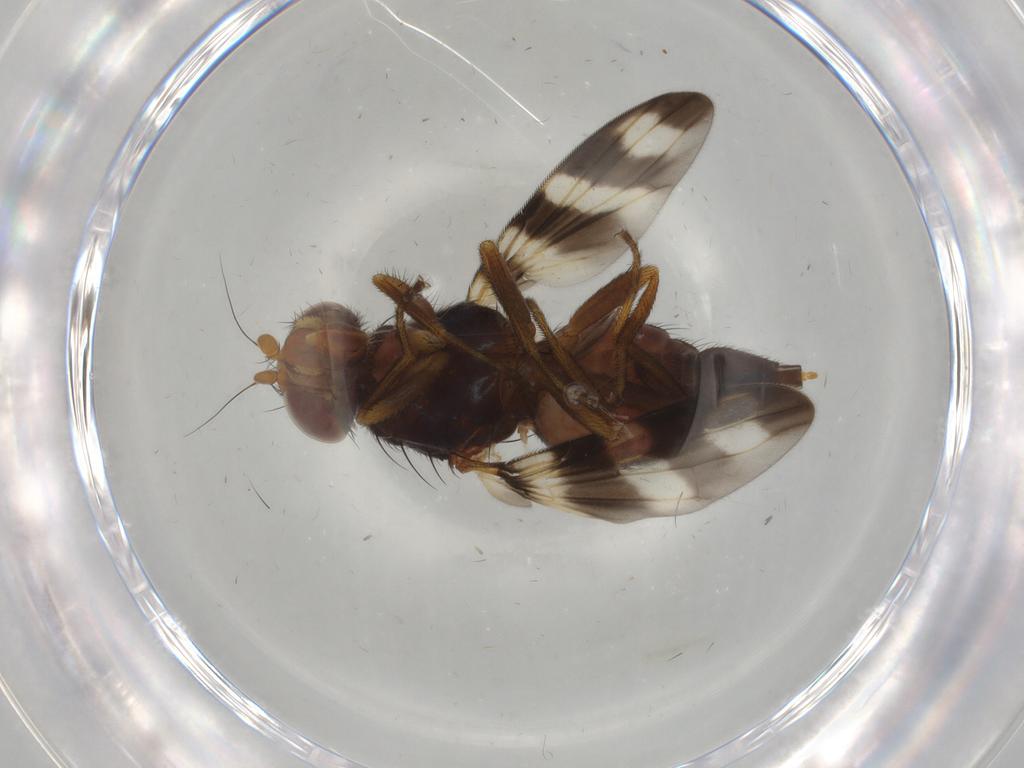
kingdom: Animalia
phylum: Arthropoda
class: Insecta
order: Diptera
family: Ulidiidae
